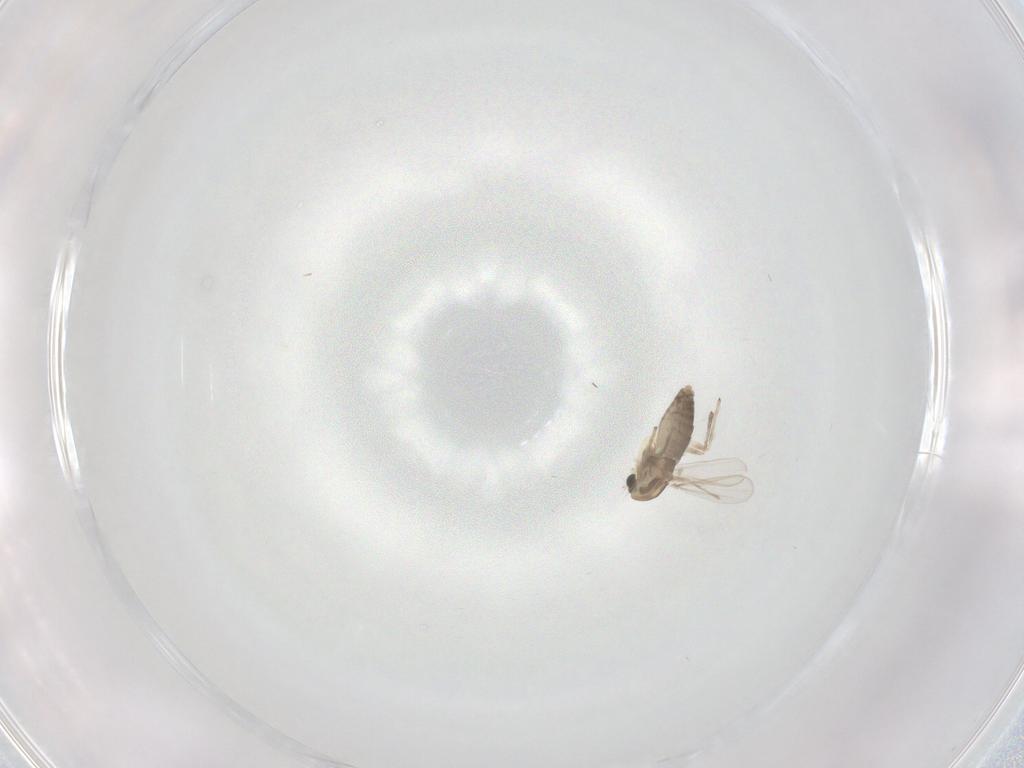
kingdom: Animalia
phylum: Arthropoda
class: Insecta
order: Diptera
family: Chironomidae
